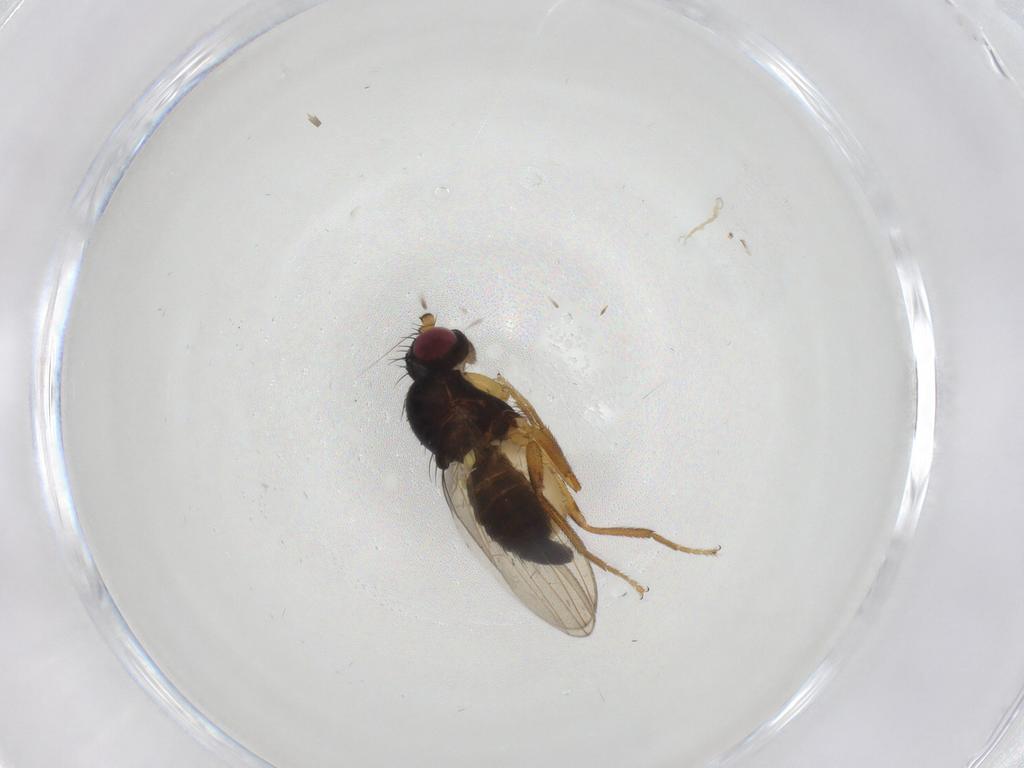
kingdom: Animalia
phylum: Arthropoda
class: Insecta
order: Diptera
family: Pseudopomyzidae
